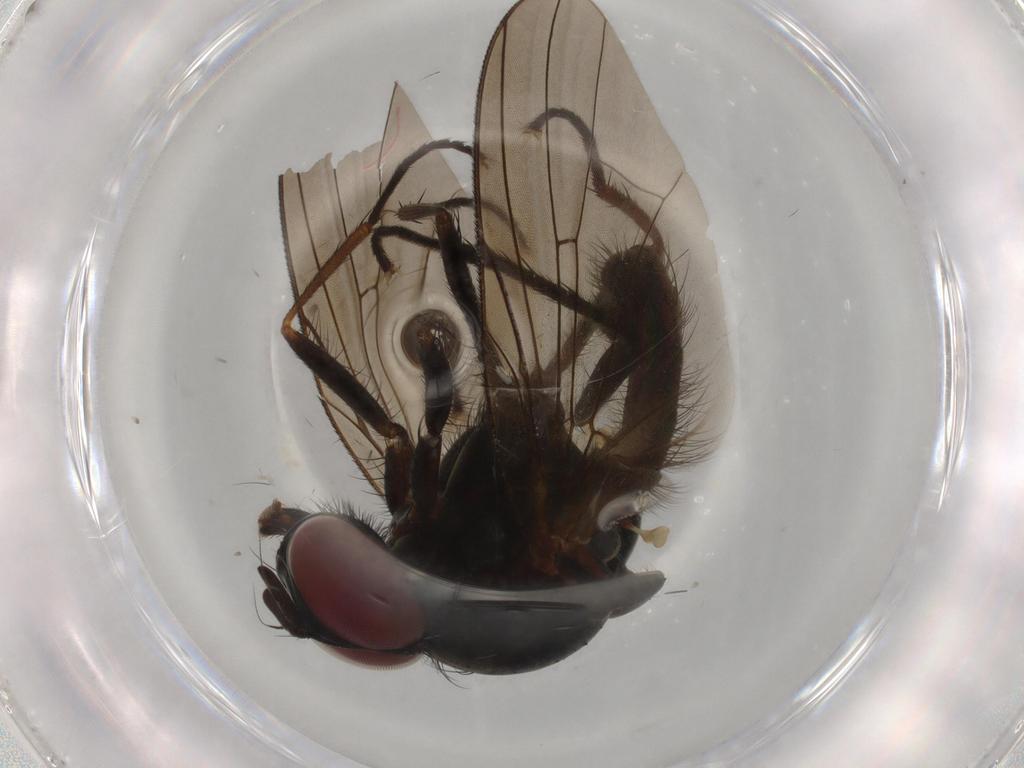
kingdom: Animalia
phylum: Arthropoda
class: Insecta
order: Diptera
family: Anthomyiidae
